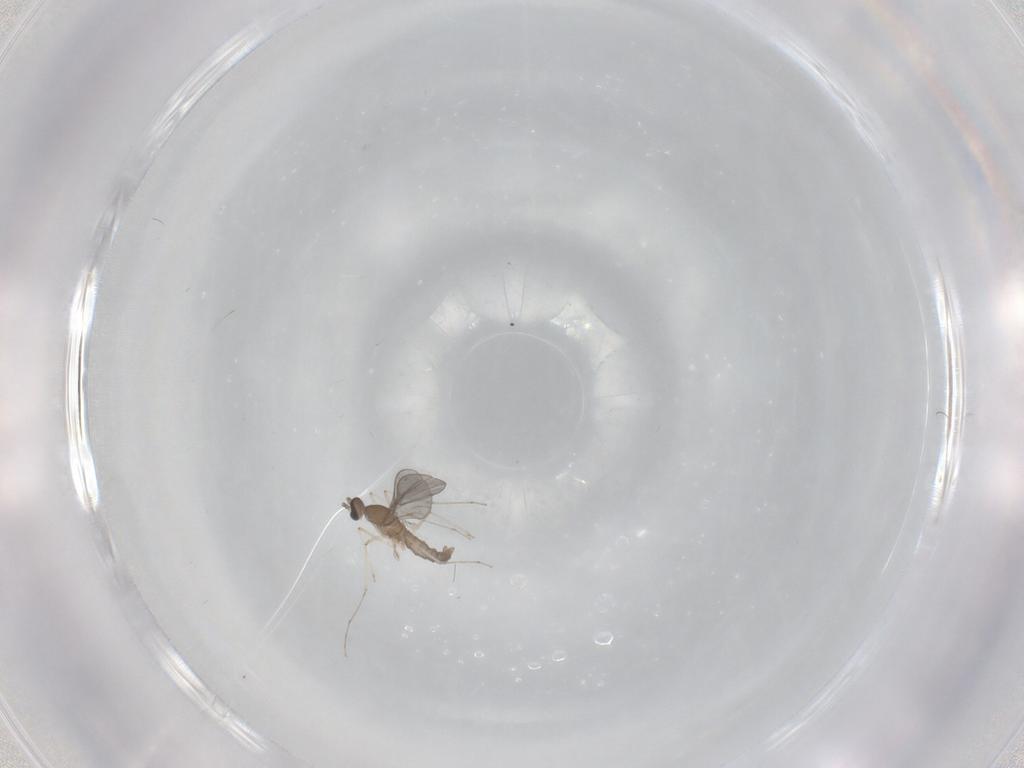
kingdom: Animalia
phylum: Arthropoda
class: Insecta
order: Diptera
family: Cecidomyiidae
